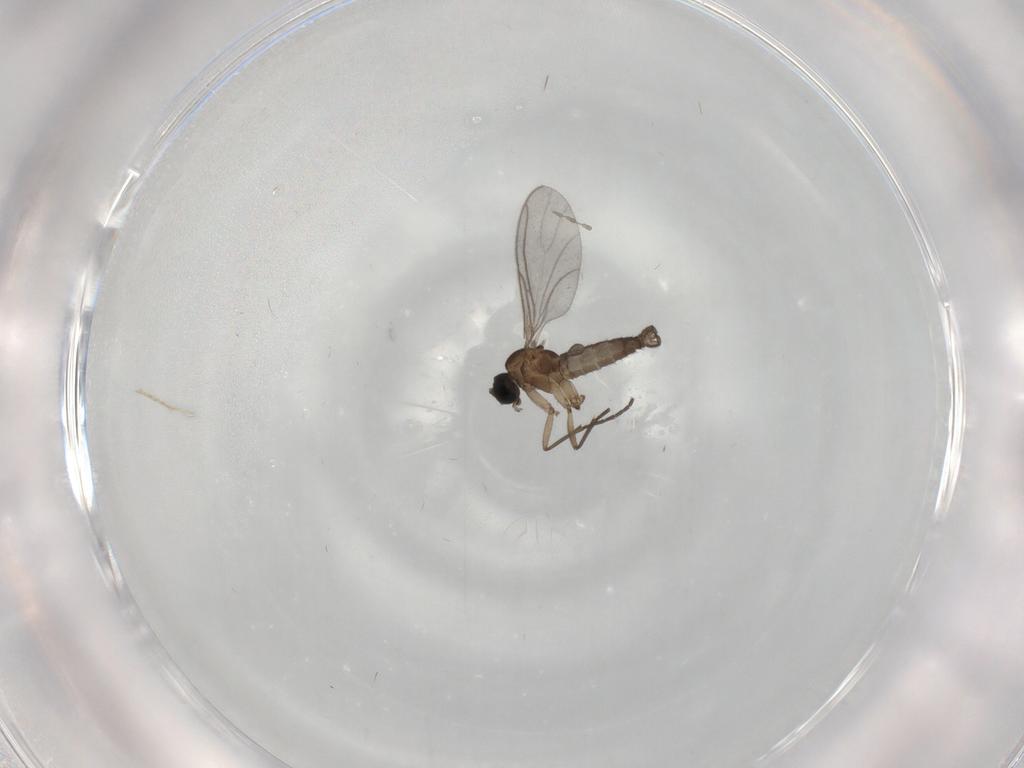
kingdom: Animalia
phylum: Arthropoda
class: Insecta
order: Diptera
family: Sciaridae
